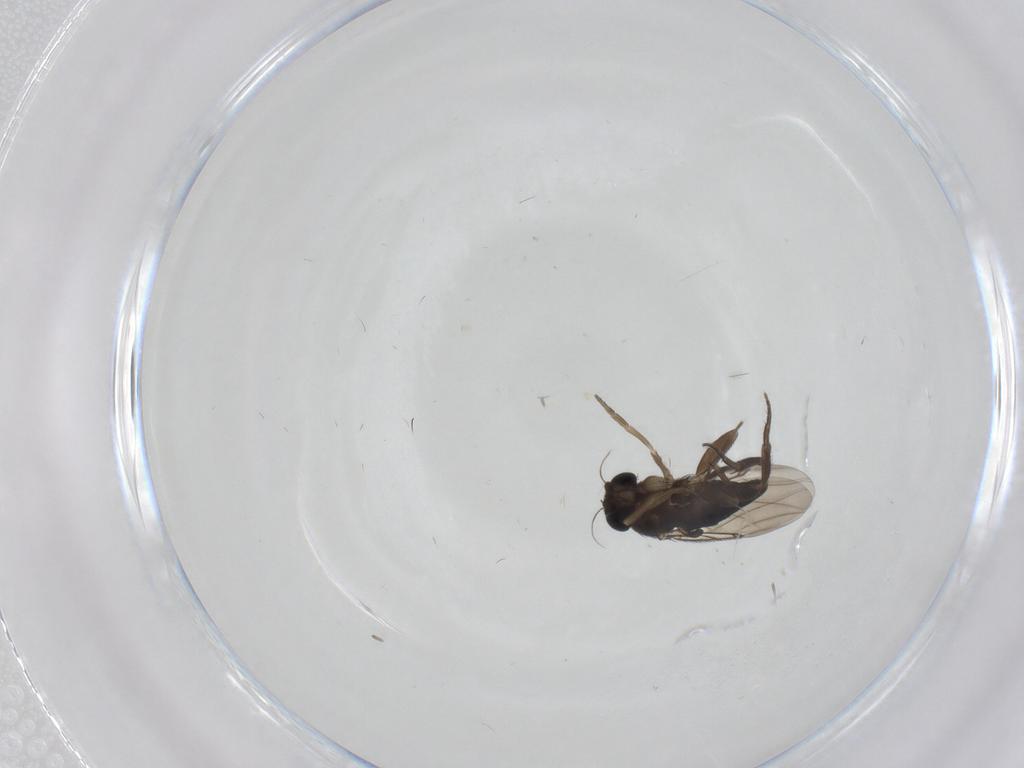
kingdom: Animalia
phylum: Arthropoda
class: Insecta
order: Diptera
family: Phoridae
